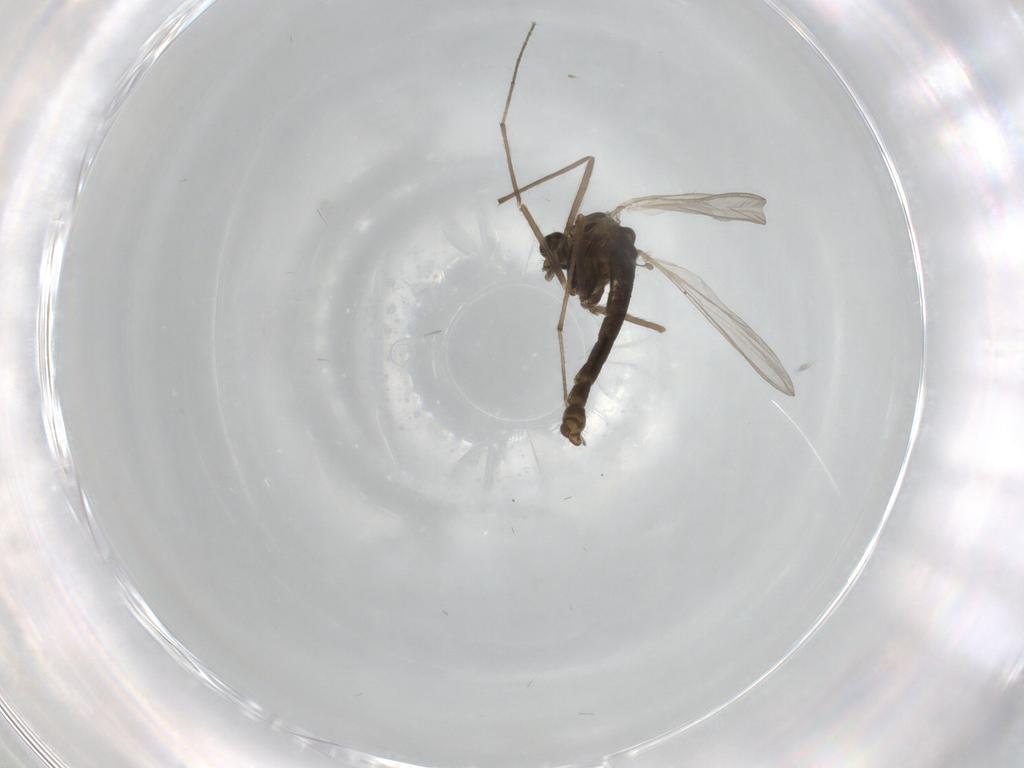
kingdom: Animalia
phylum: Arthropoda
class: Insecta
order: Diptera
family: Chironomidae
